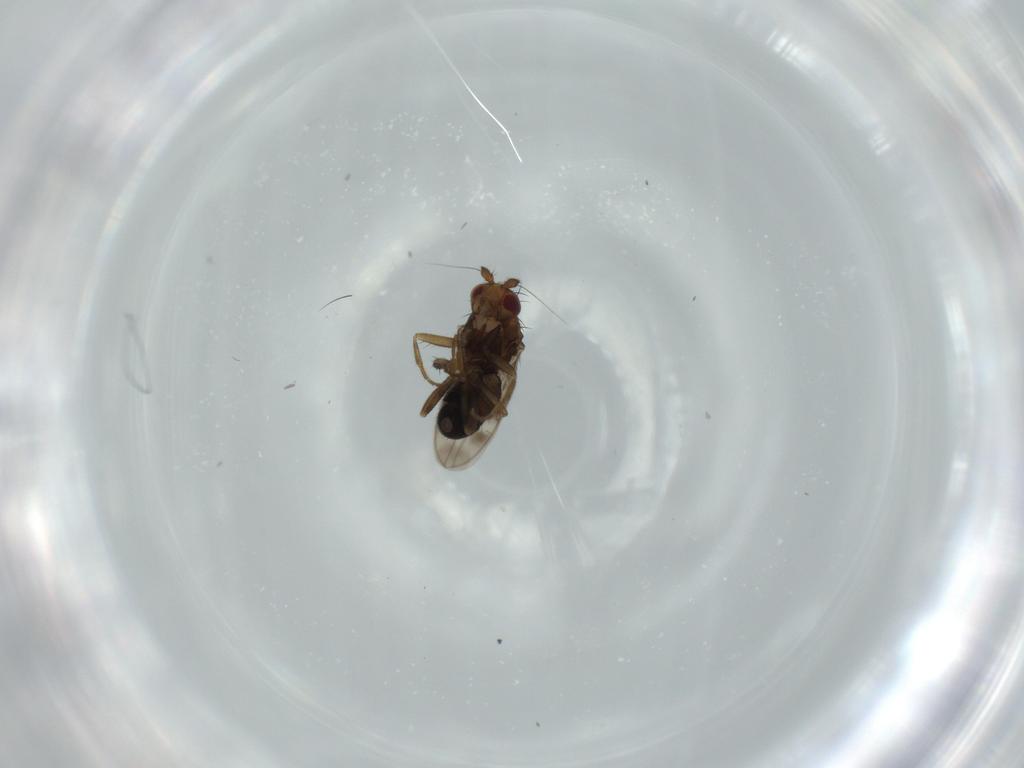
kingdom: Animalia
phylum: Arthropoda
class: Insecta
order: Diptera
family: Sphaeroceridae
